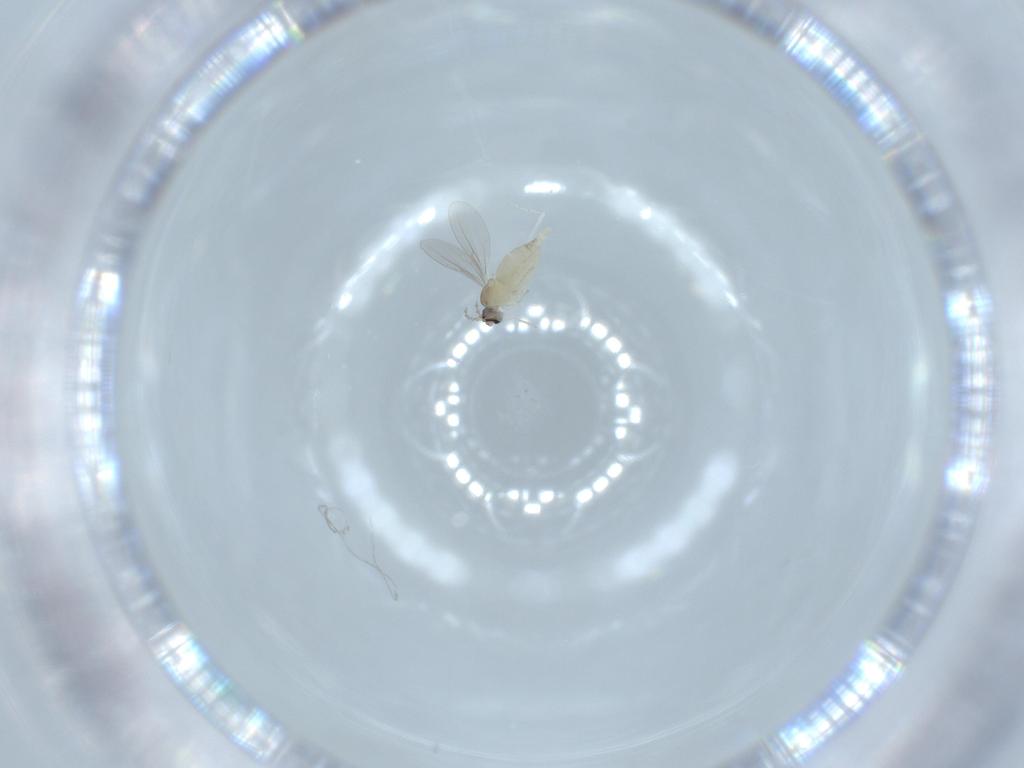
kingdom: Animalia
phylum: Arthropoda
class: Insecta
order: Diptera
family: Cecidomyiidae
